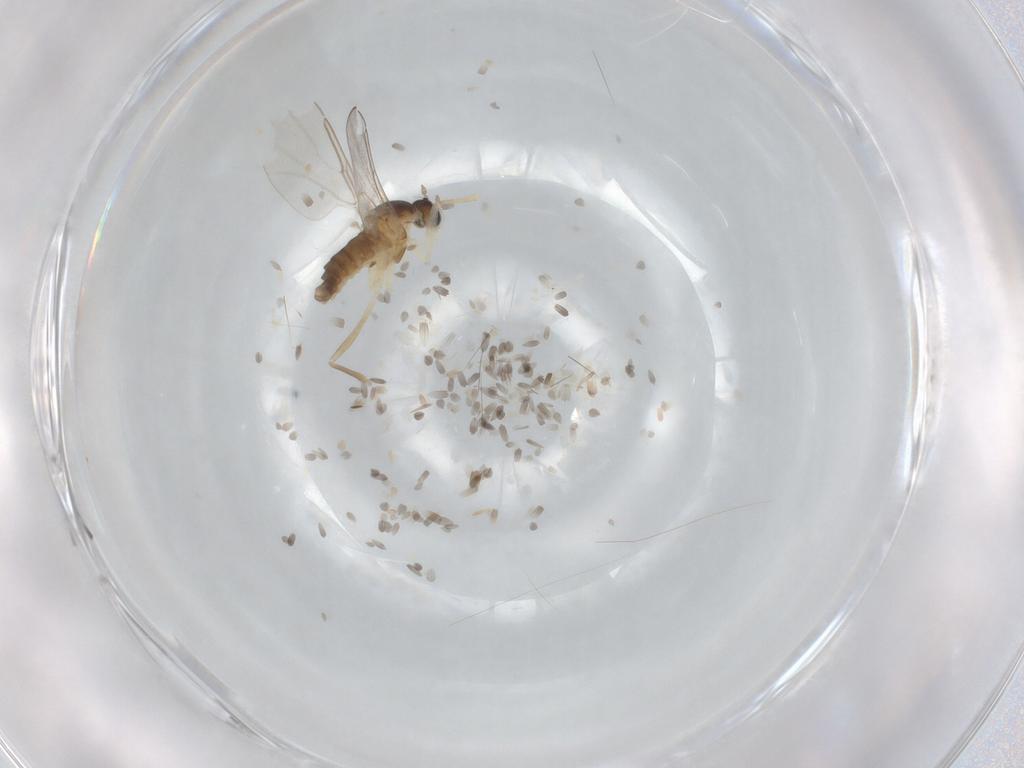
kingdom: Animalia
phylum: Arthropoda
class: Insecta
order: Diptera
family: Cecidomyiidae
